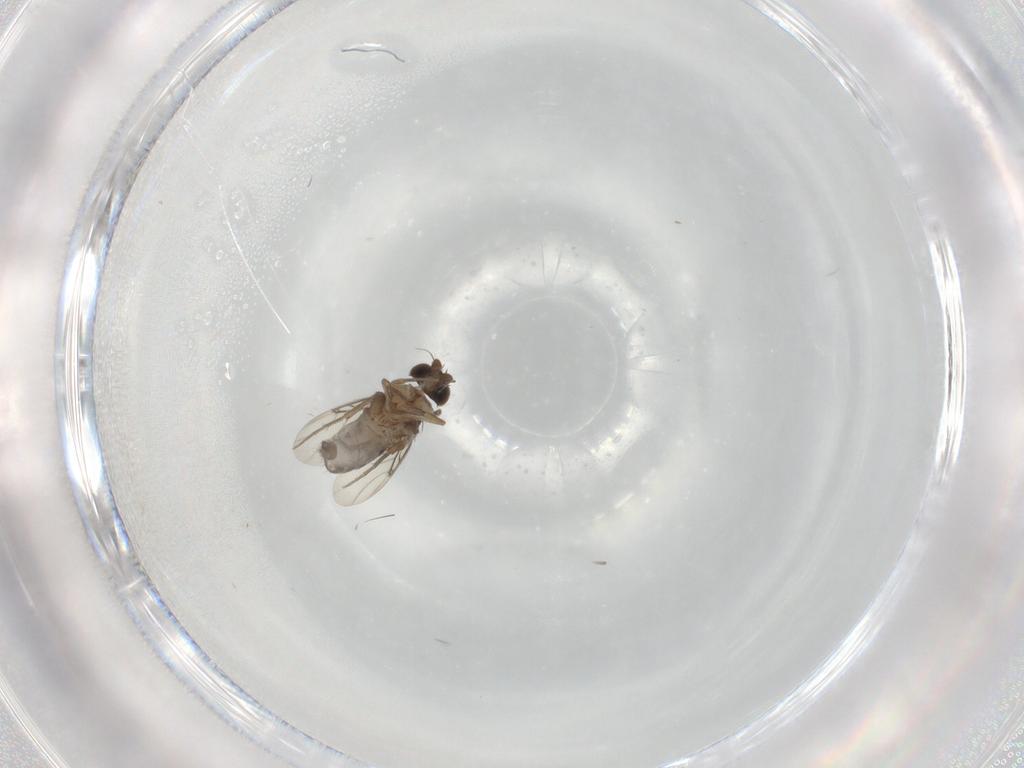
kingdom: Animalia
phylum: Arthropoda
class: Insecta
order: Diptera
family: Phoridae
